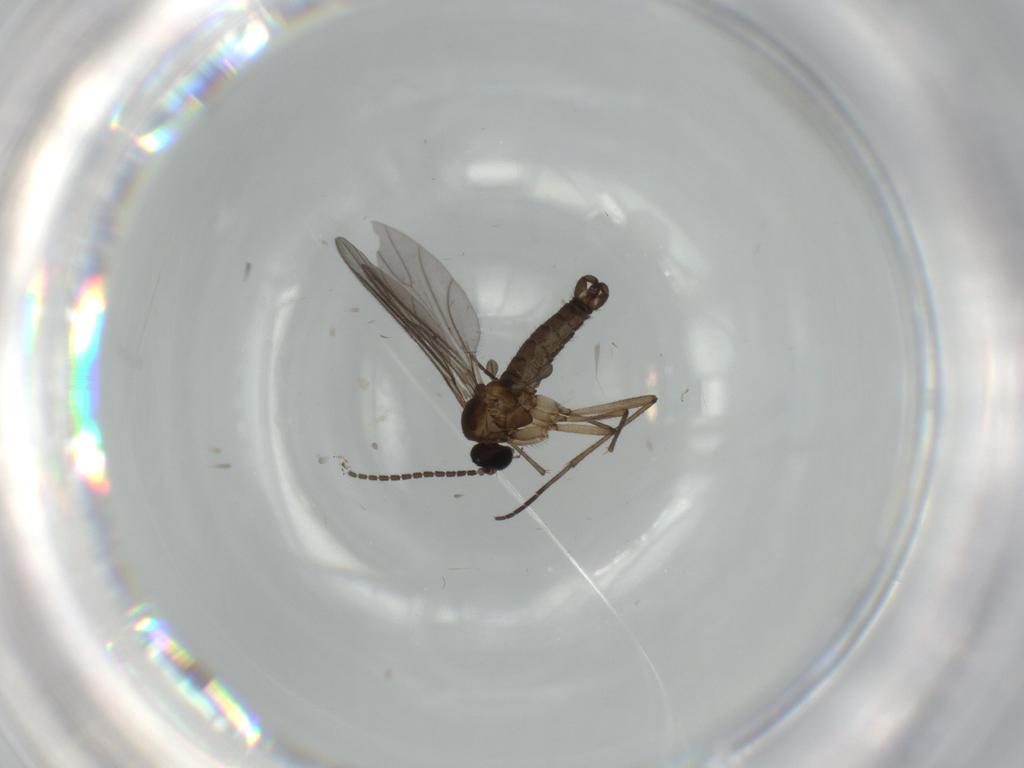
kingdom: Animalia
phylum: Arthropoda
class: Insecta
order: Diptera
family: Sciaridae
